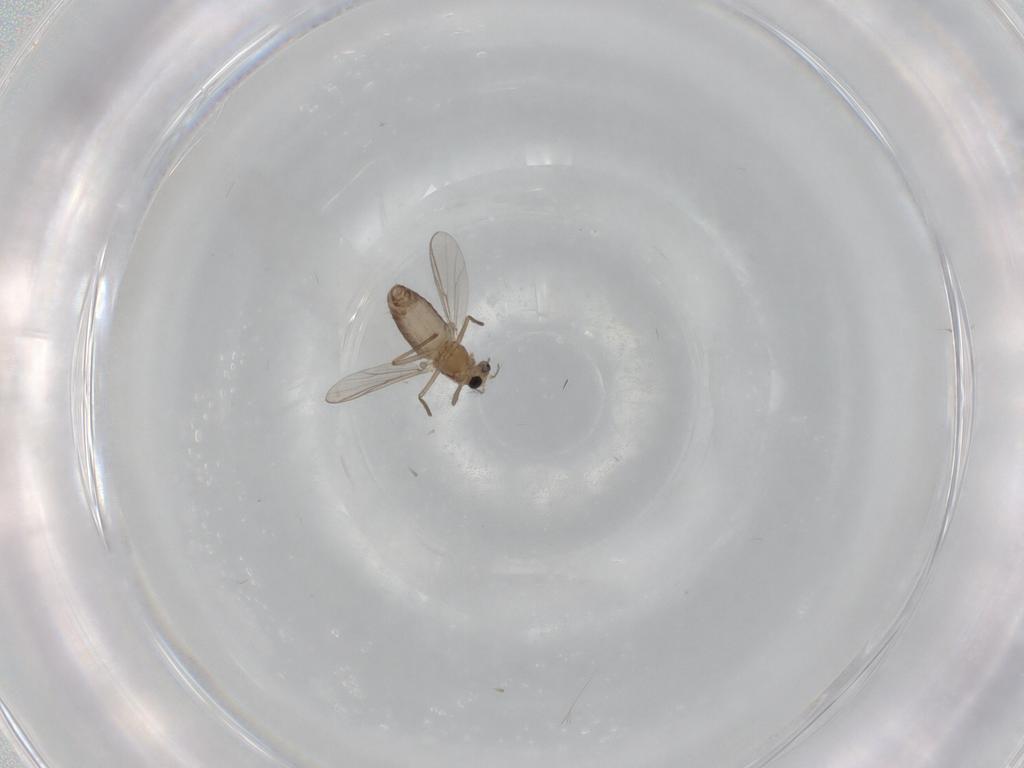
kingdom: Animalia
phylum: Arthropoda
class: Insecta
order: Diptera
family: Chironomidae
